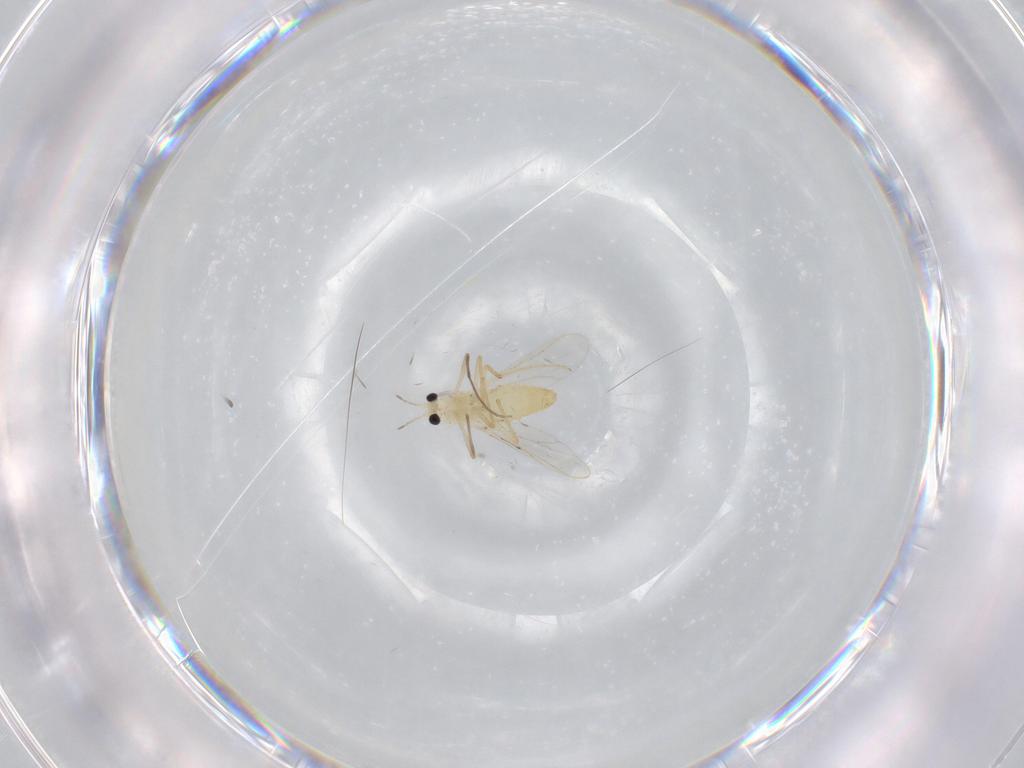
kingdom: Animalia
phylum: Arthropoda
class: Insecta
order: Diptera
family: Chironomidae
